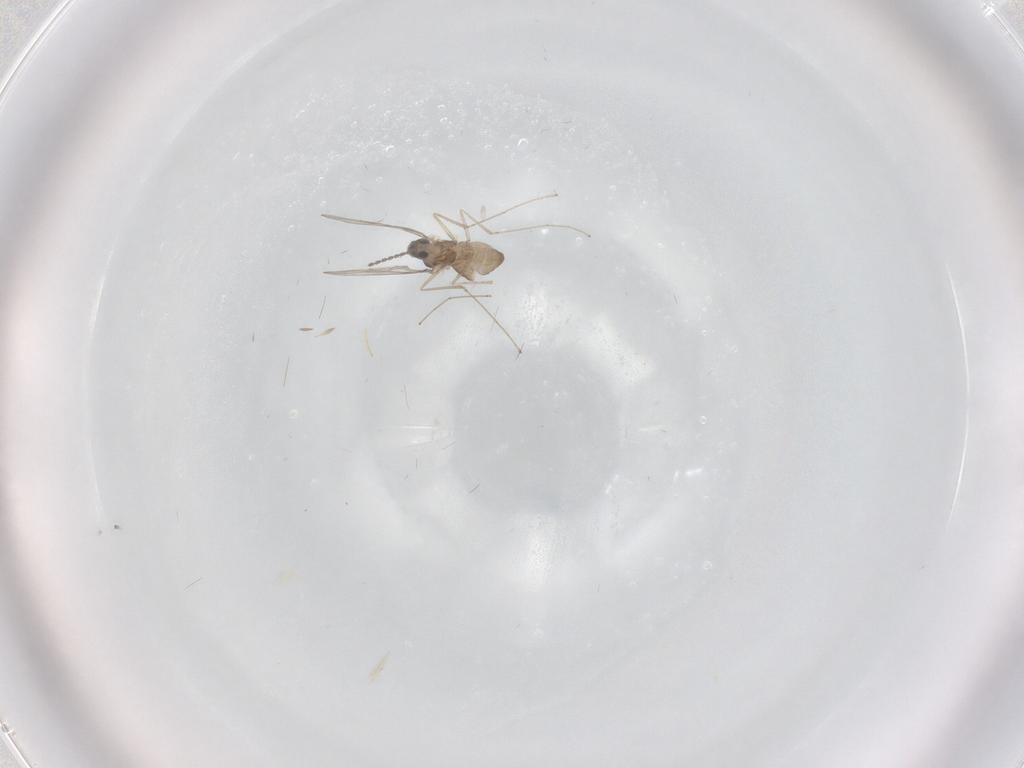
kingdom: Animalia
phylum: Arthropoda
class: Insecta
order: Diptera
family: Cecidomyiidae
